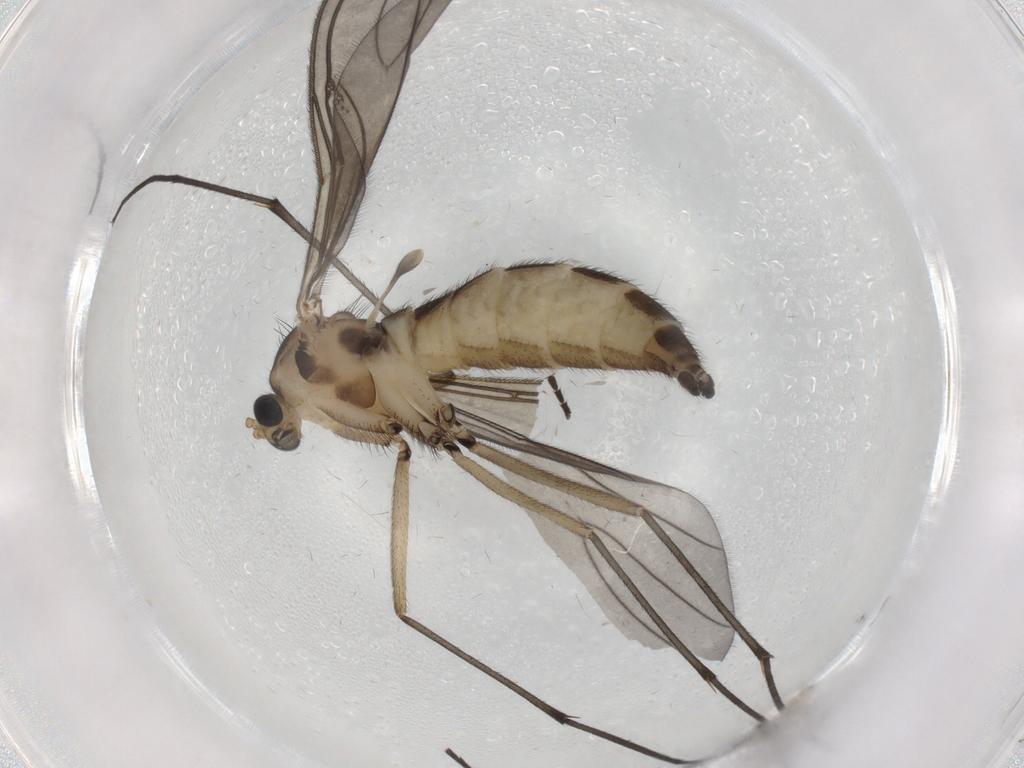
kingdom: Animalia
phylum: Arthropoda
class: Insecta
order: Diptera
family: Sciaridae
